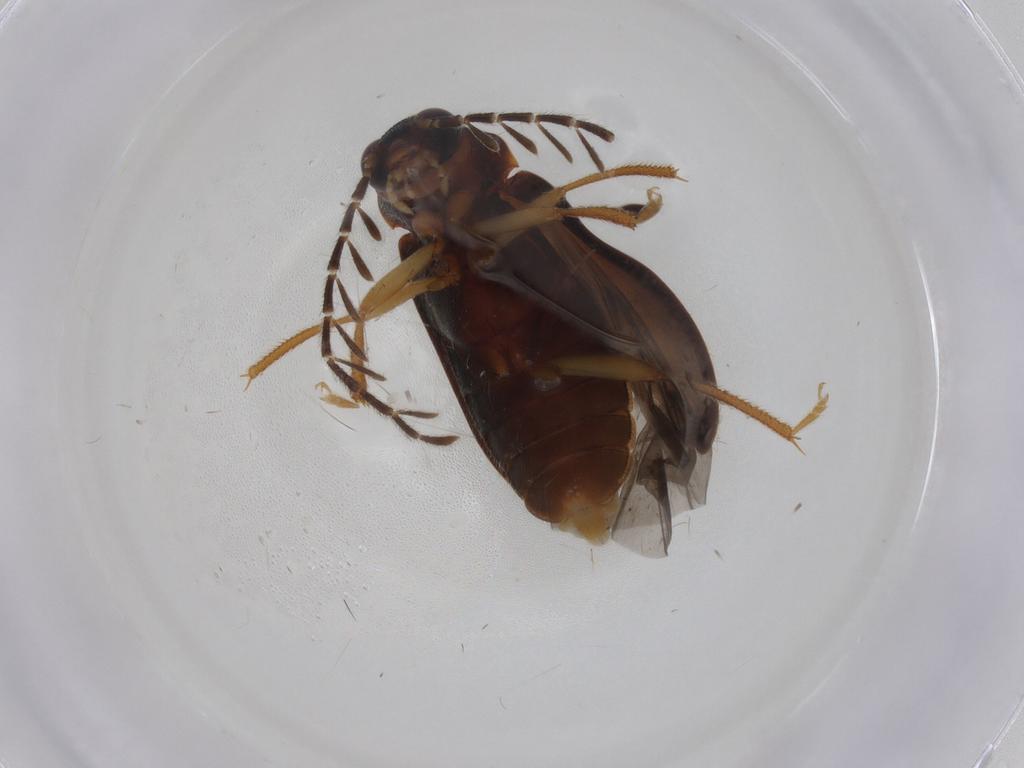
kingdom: Animalia
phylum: Arthropoda
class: Insecta
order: Coleoptera
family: Ptilodactylidae
